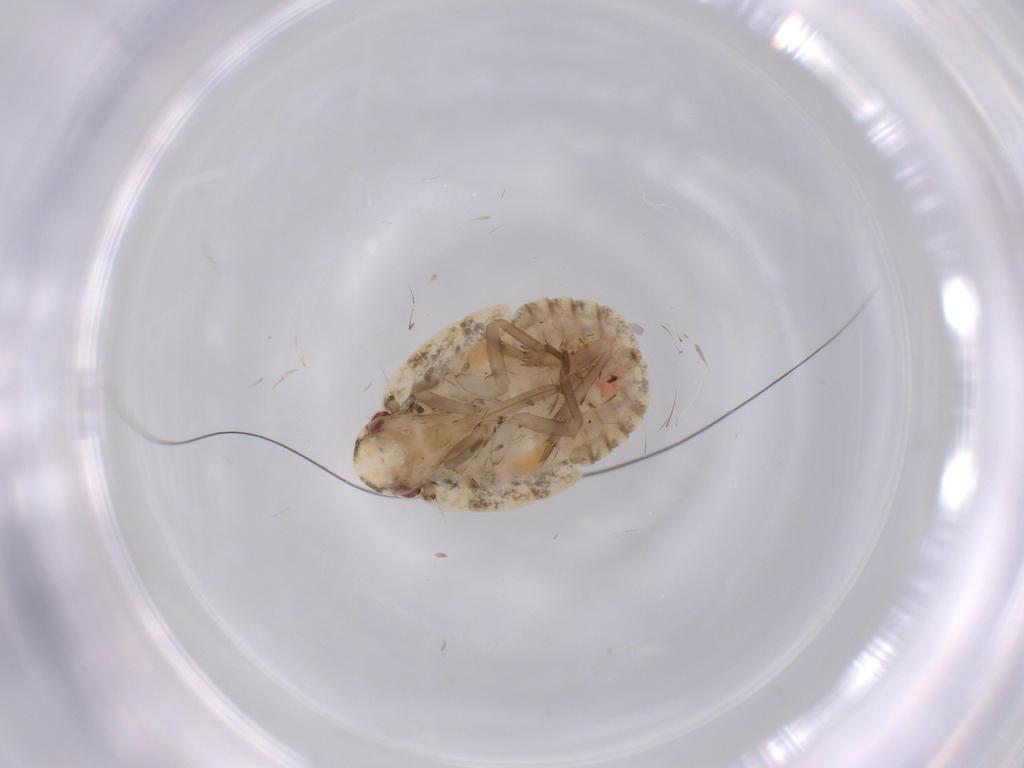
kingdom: Animalia
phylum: Arthropoda
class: Insecta
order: Hemiptera
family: Flatidae
